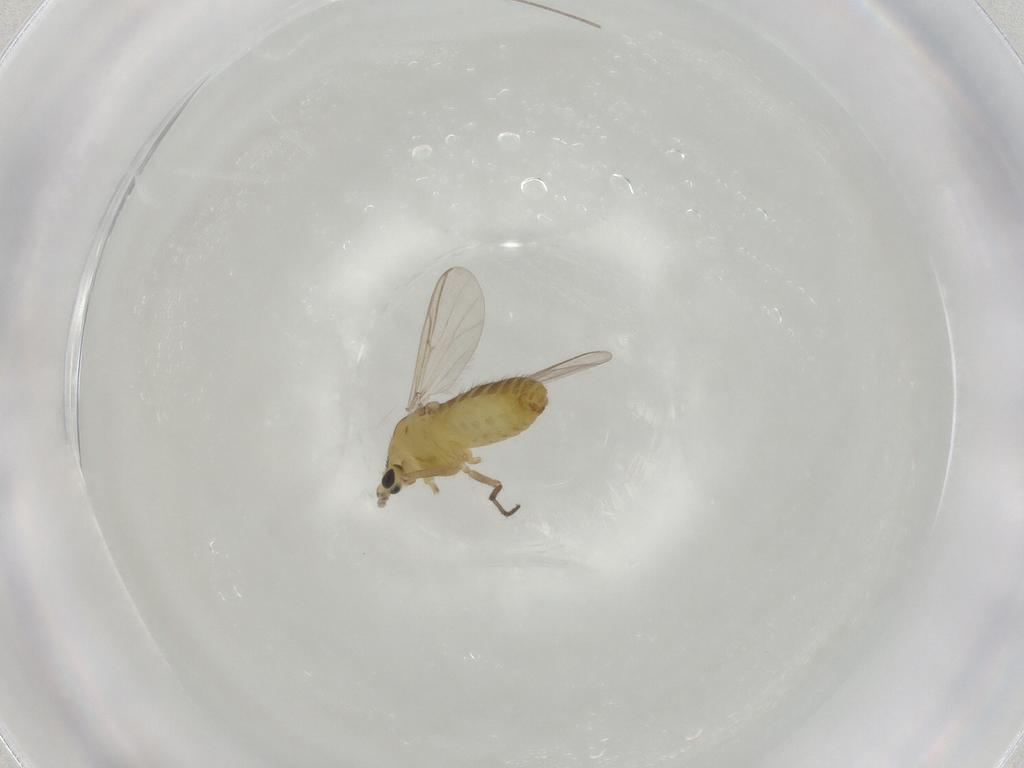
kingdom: Animalia
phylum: Arthropoda
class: Insecta
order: Diptera
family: Chironomidae
